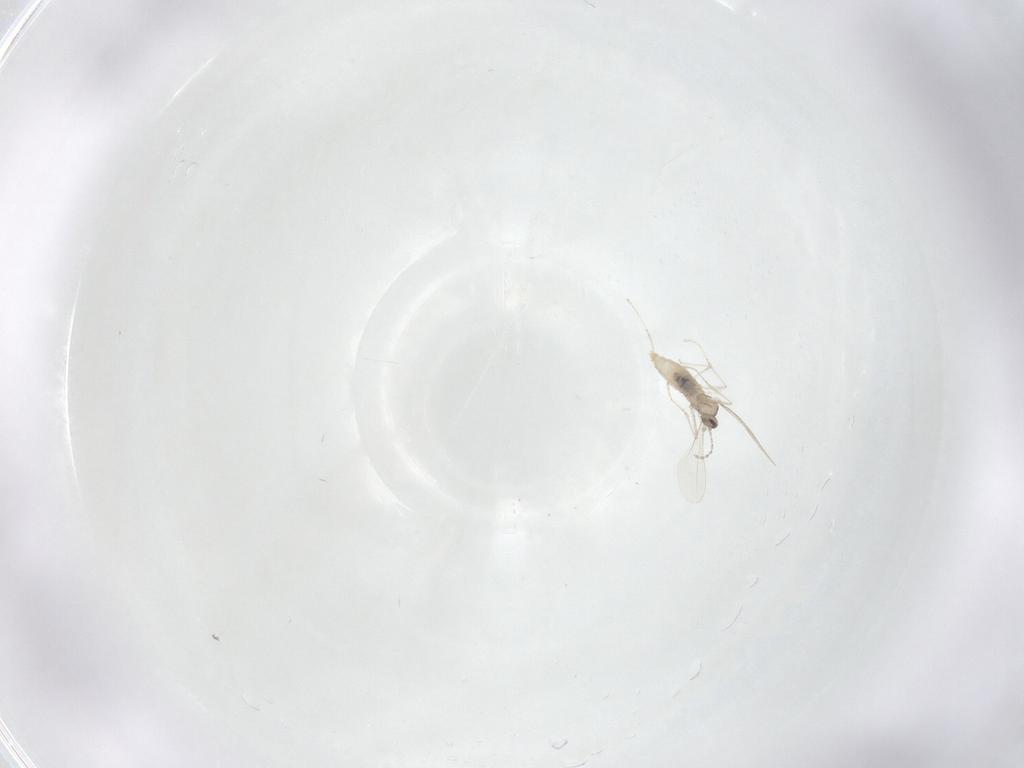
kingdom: Animalia
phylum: Arthropoda
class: Insecta
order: Diptera
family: Cecidomyiidae
